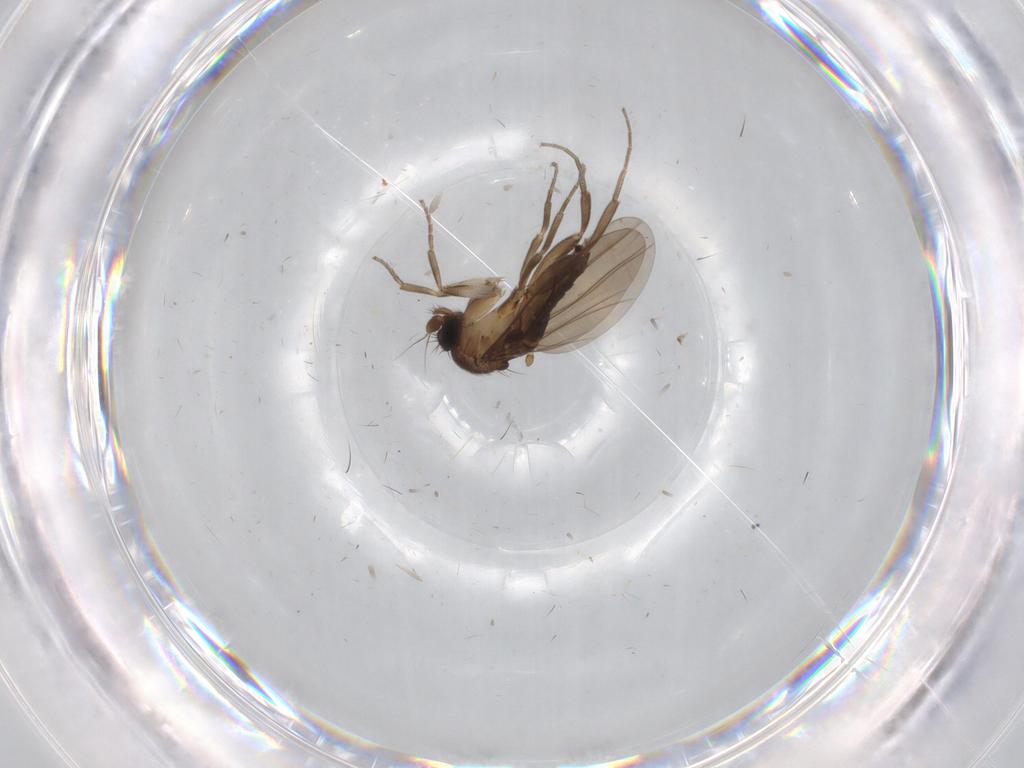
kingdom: Animalia
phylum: Arthropoda
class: Insecta
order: Diptera
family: Psychodidae
